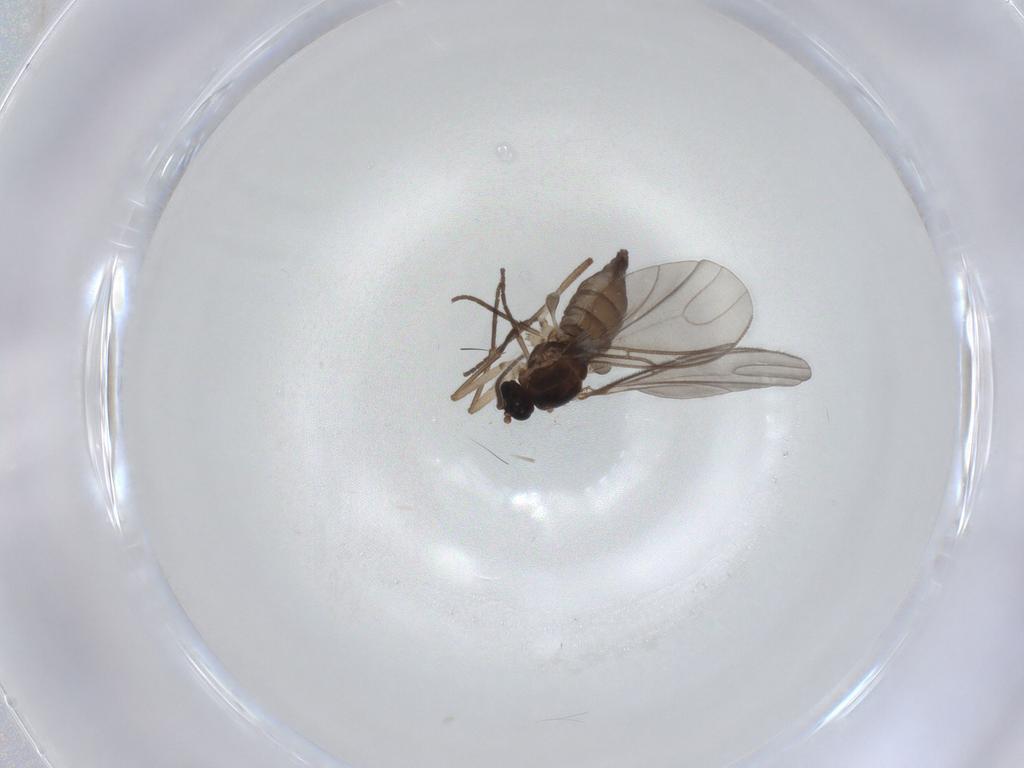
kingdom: Animalia
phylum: Arthropoda
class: Insecta
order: Diptera
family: Sciaridae
